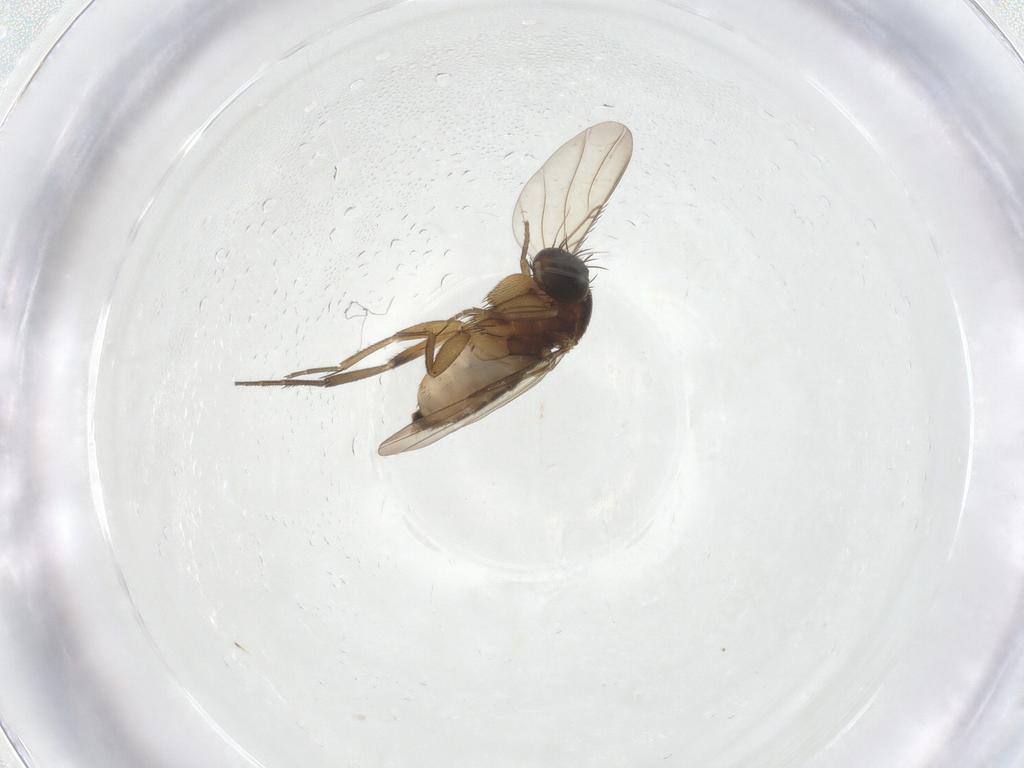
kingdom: Animalia
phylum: Arthropoda
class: Insecta
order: Diptera
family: Phoridae
